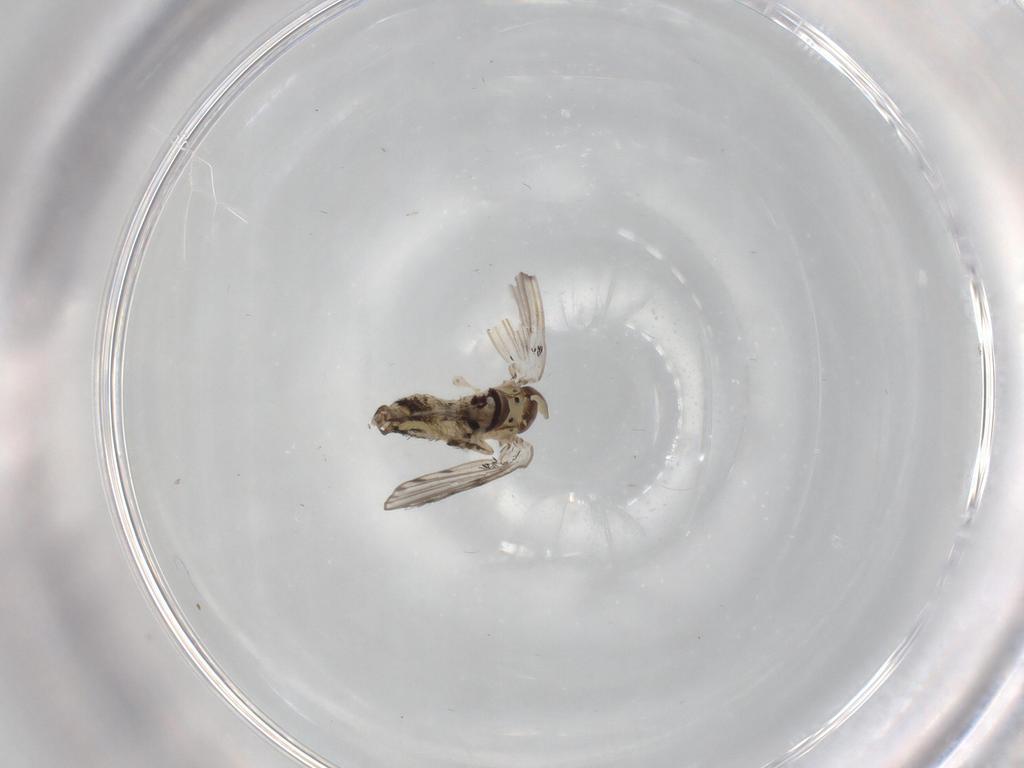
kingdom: Animalia
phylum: Arthropoda
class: Insecta
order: Diptera
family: Psychodidae
